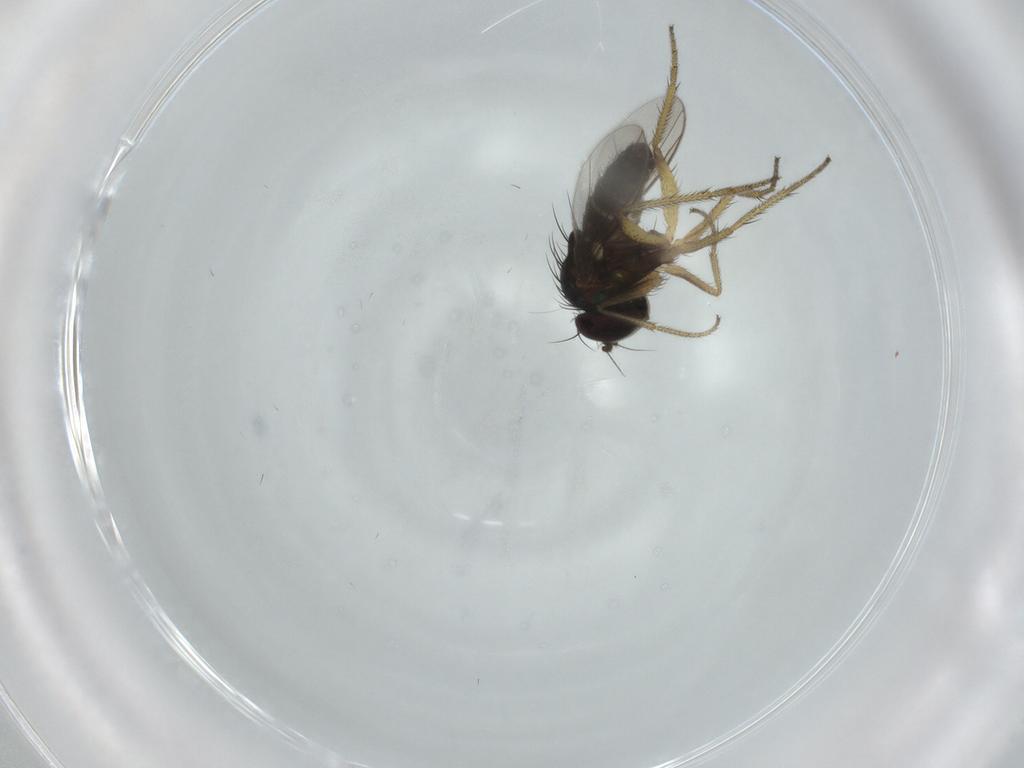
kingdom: Animalia
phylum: Arthropoda
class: Insecta
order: Diptera
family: Dolichopodidae
